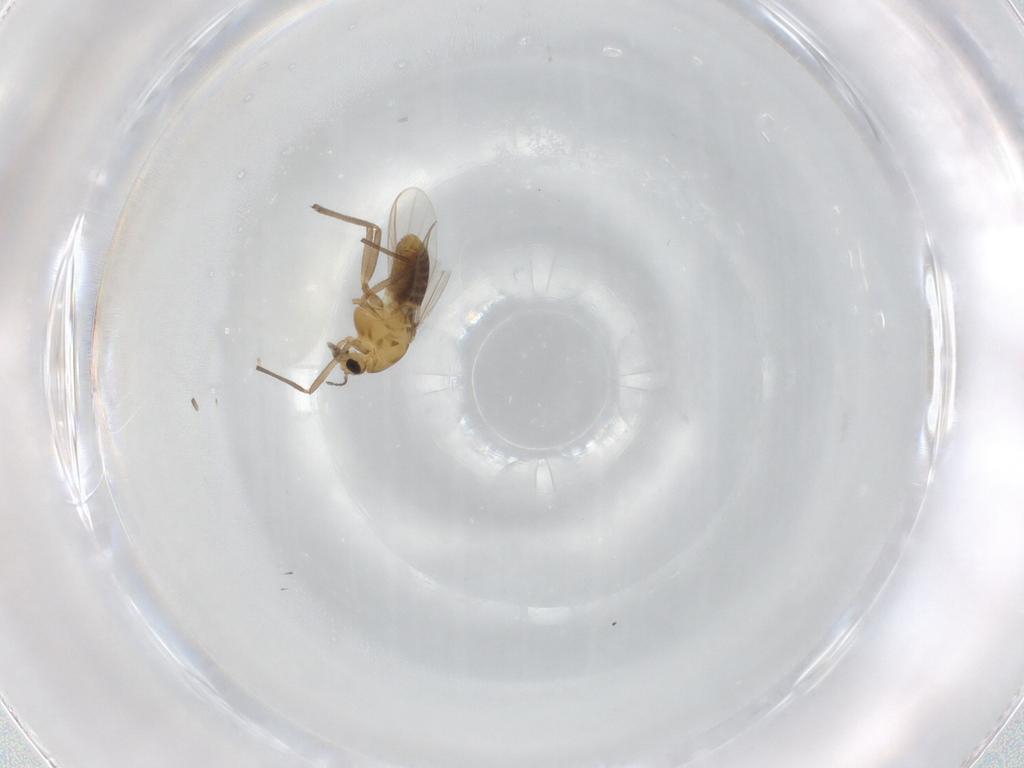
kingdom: Animalia
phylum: Arthropoda
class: Insecta
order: Diptera
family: Chironomidae
